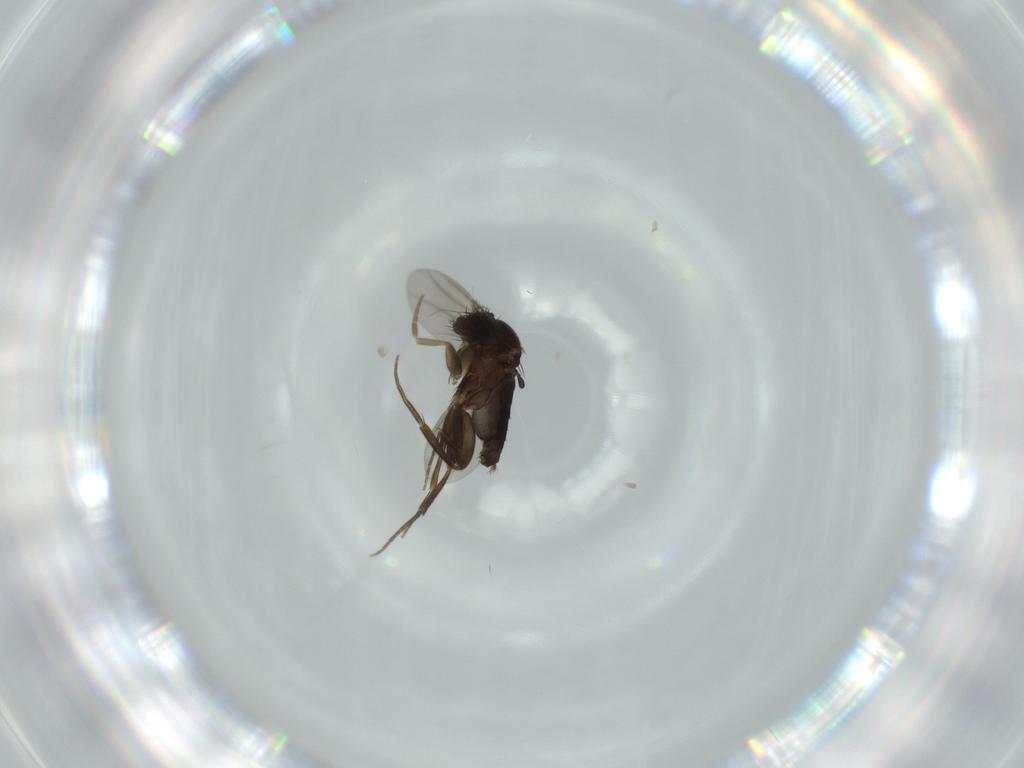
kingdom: Animalia
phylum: Arthropoda
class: Insecta
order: Diptera
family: Phoridae
